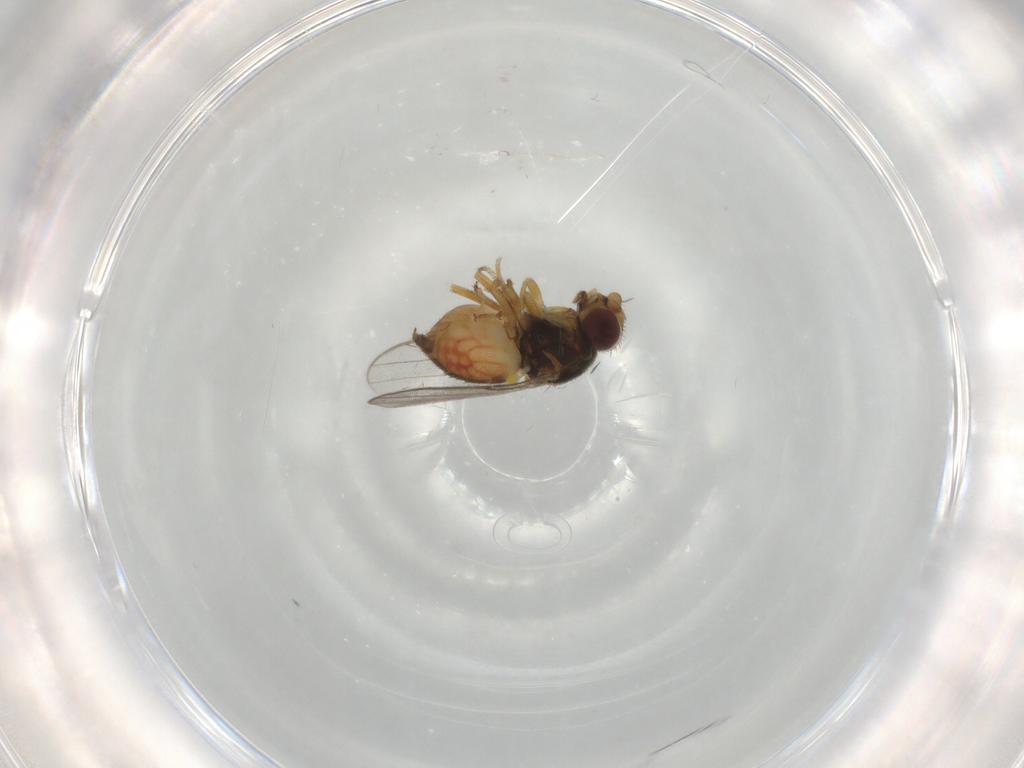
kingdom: Animalia
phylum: Arthropoda
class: Insecta
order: Diptera
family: Chloropidae
